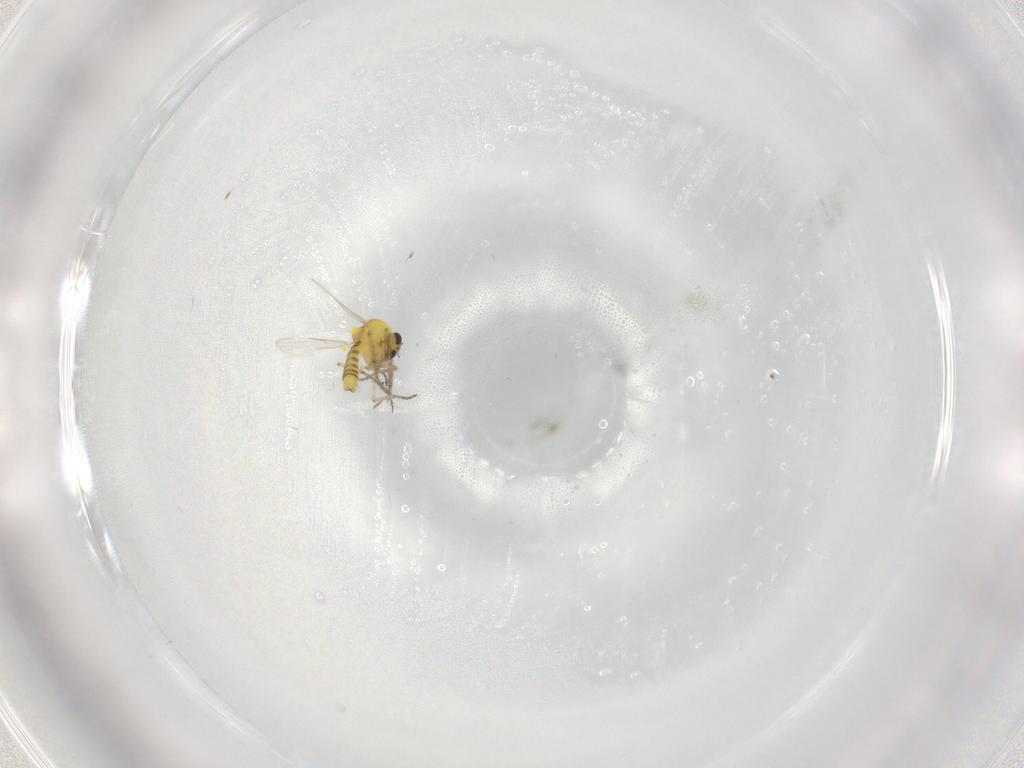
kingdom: Animalia
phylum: Arthropoda
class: Insecta
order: Diptera
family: Ceratopogonidae
